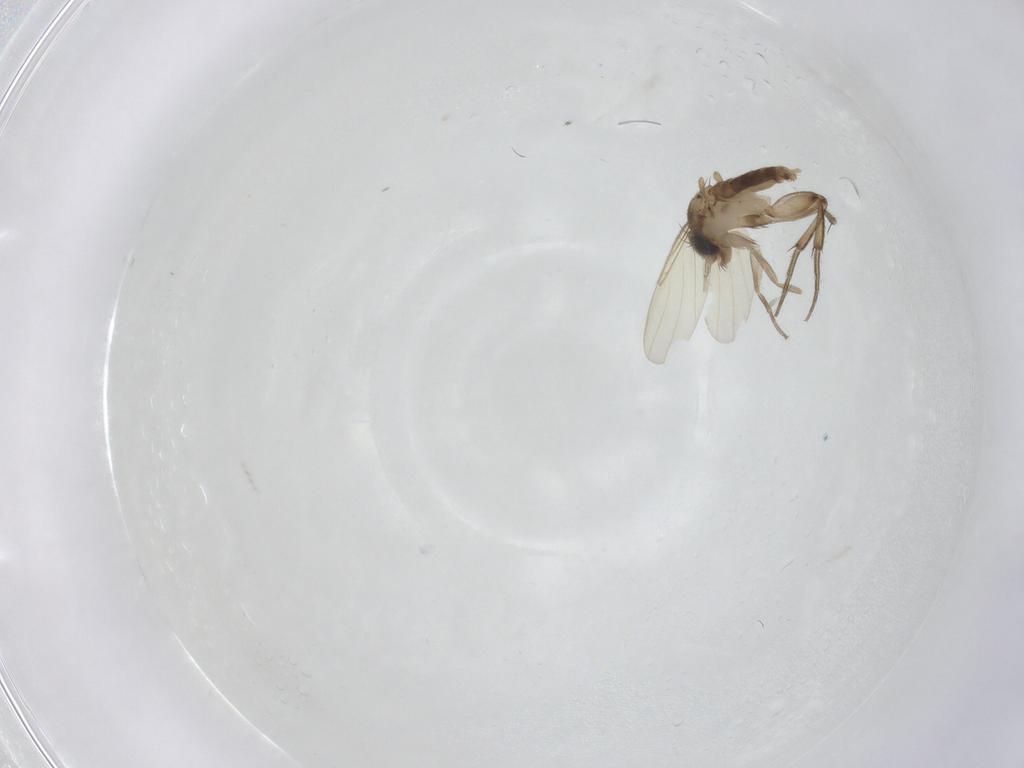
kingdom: Animalia
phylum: Arthropoda
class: Insecta
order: Diptera
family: Phoridae
